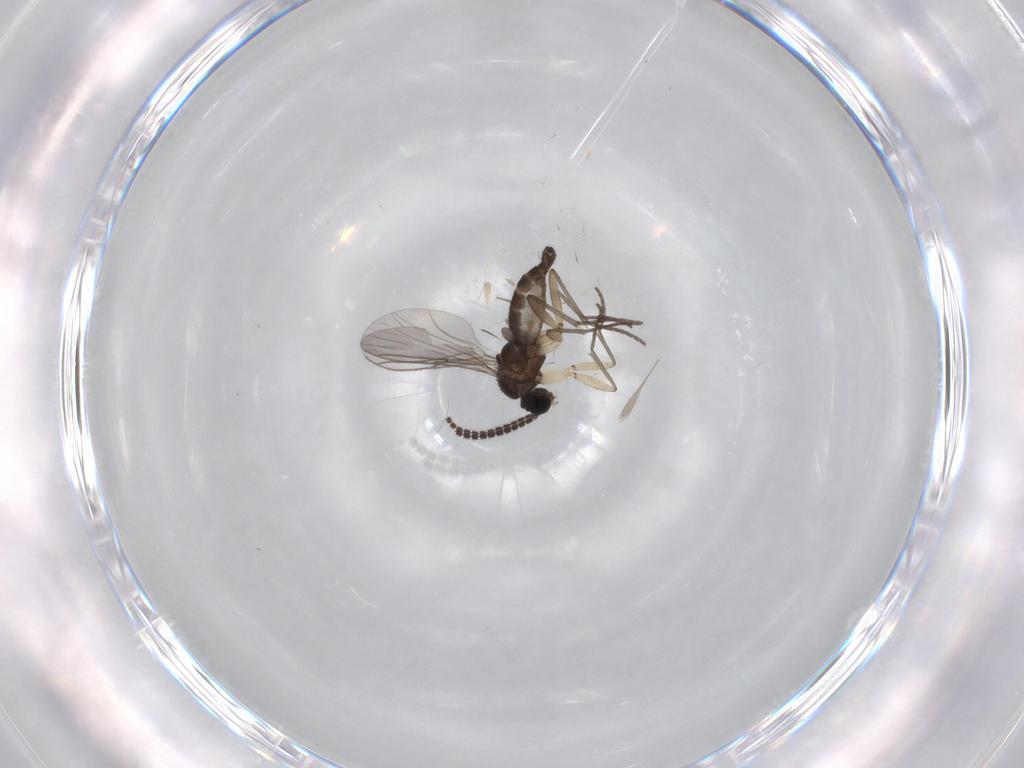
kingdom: Animalia
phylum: Arthropoda
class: Insecta
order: Diptera
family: Sciaridae
